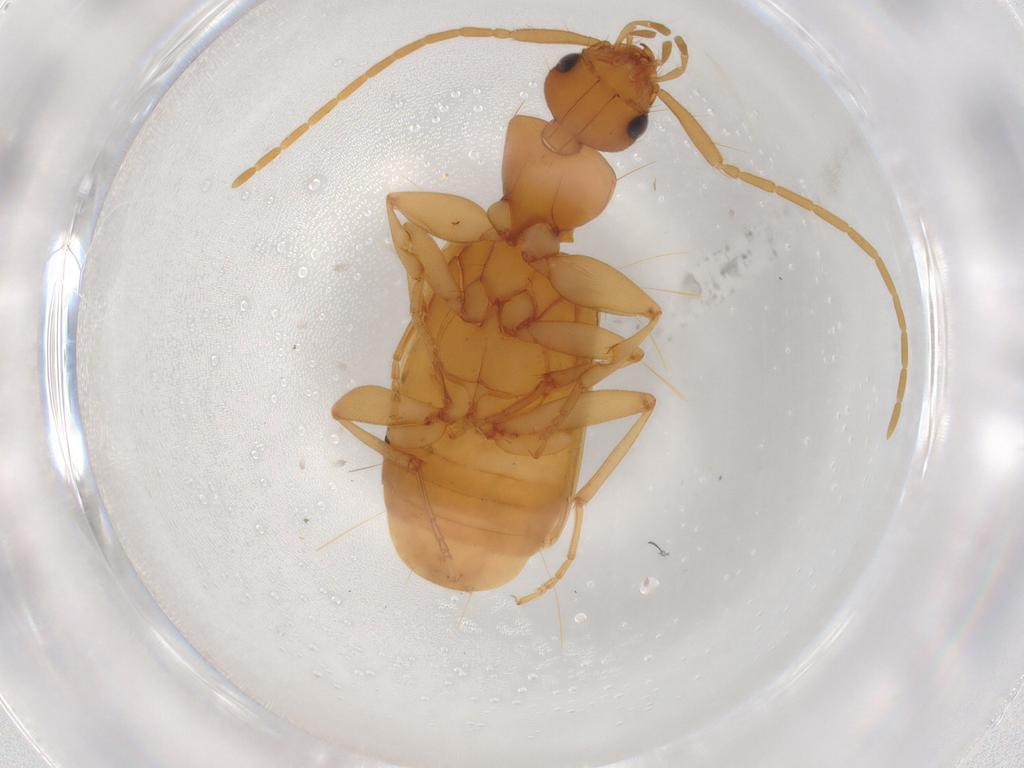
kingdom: Animalia
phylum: Arthropoda
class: Insecta
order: Coleoptera
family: Carabidae
